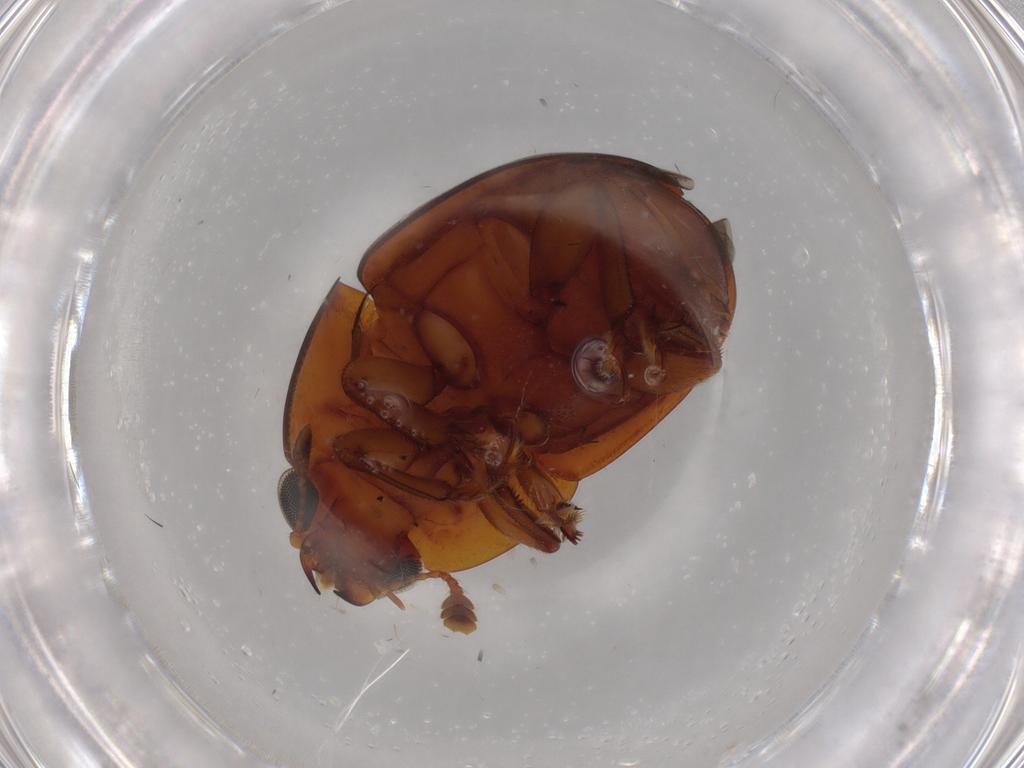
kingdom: Animalia
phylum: Arthropoda
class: Insecta
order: Coleoptera
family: Nitidulidae
